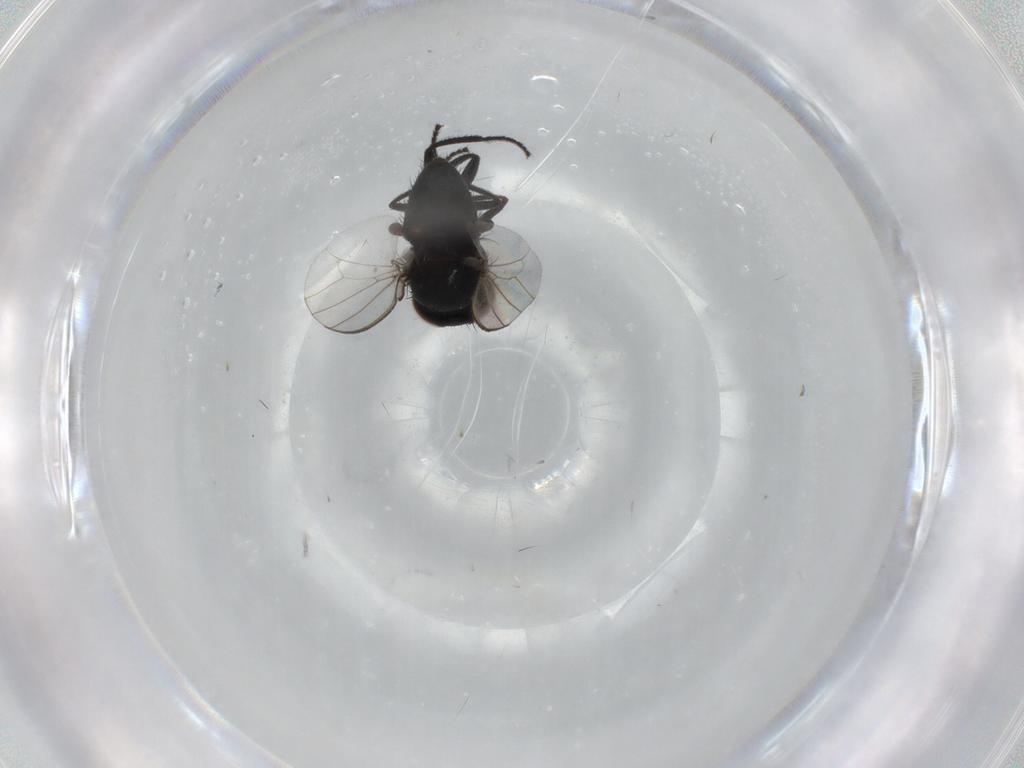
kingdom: Animalia
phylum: Arthropoda
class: Insecta
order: Diptera
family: Milichiidae
